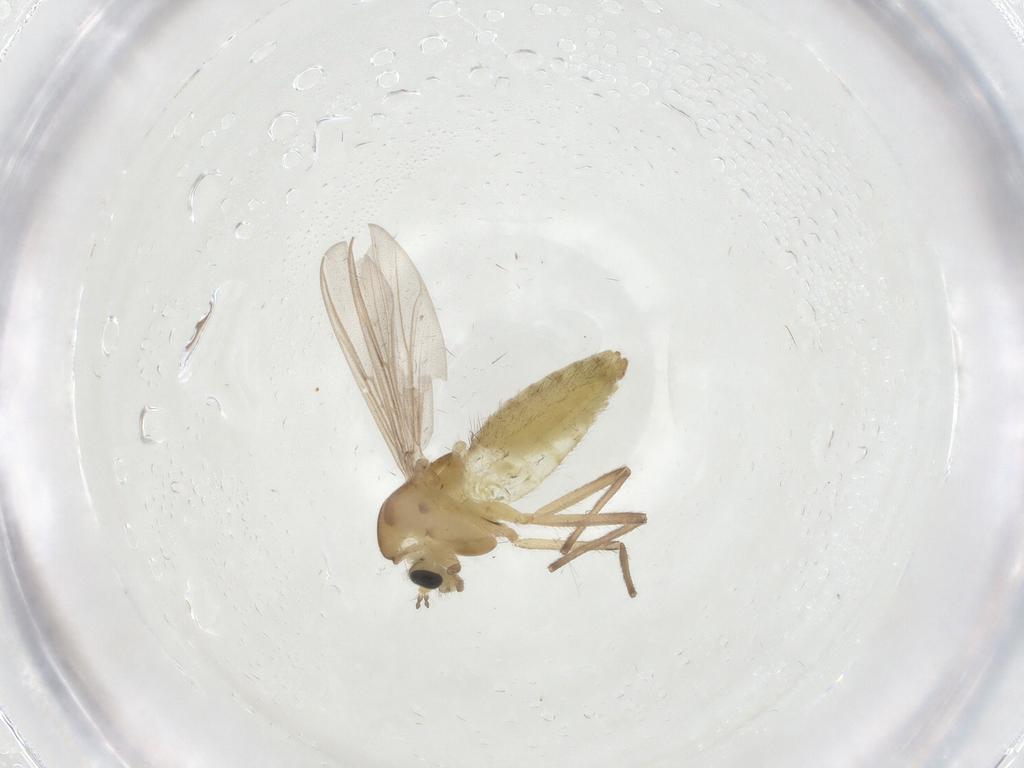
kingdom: Animalia
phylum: Arthropoda
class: Insecta
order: Diptera
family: Chironomidae
